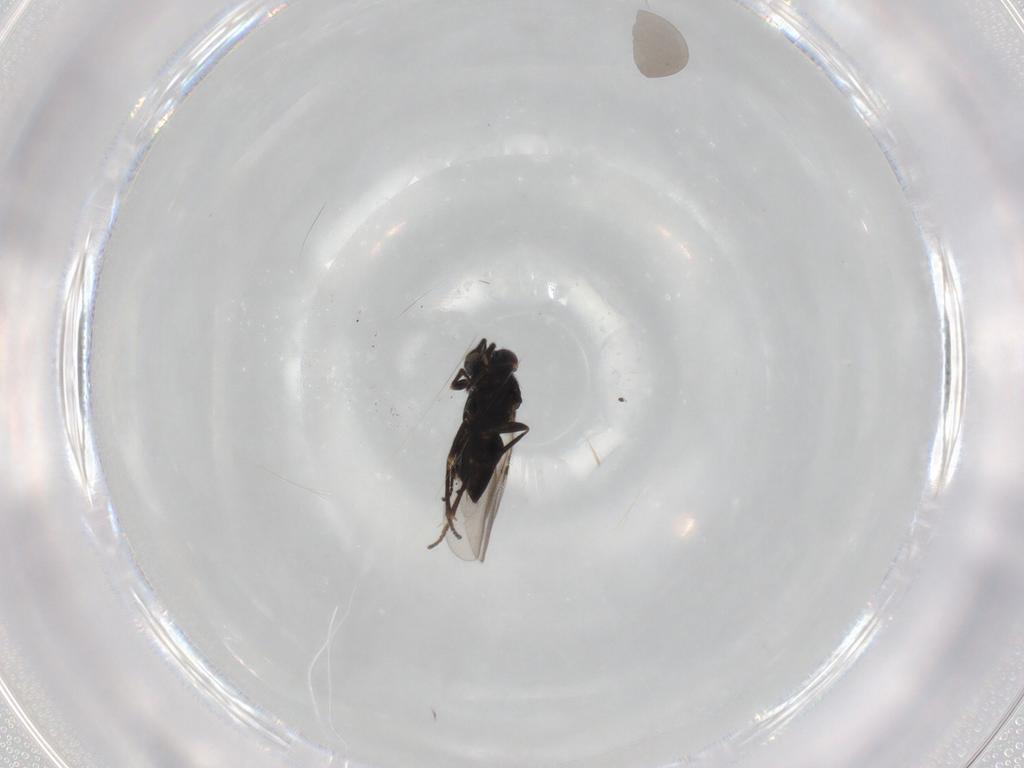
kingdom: Animalia
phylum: Arthropoda
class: Insecta
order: Hymenoptera
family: Encyrtidae
